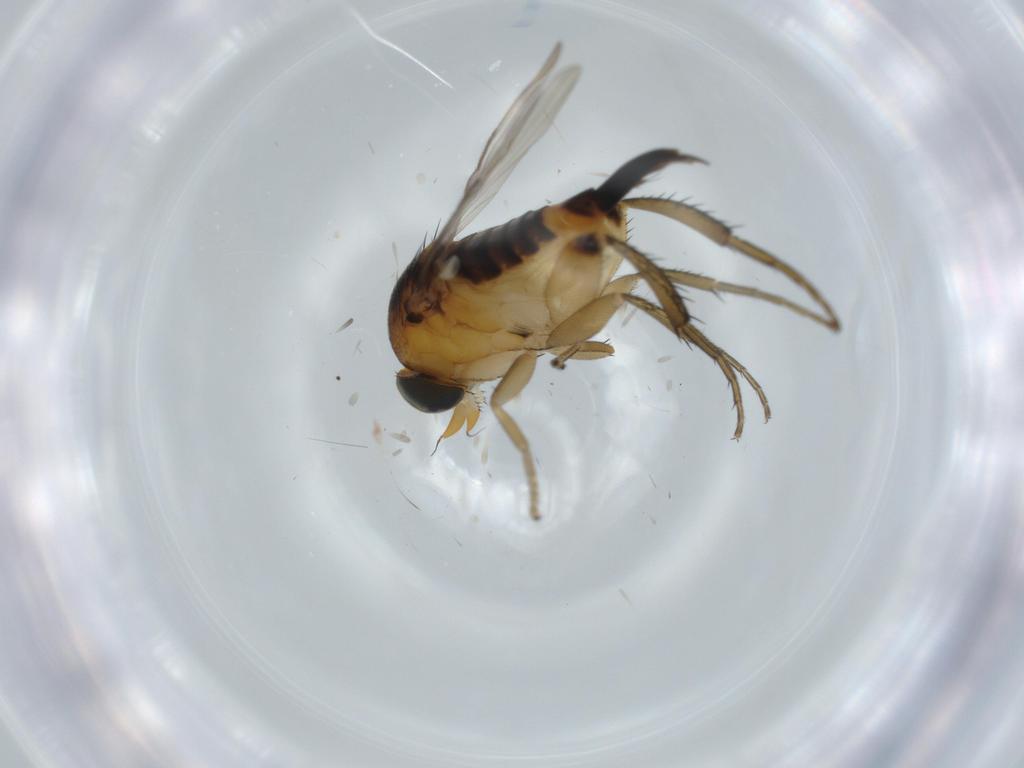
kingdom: Animalia
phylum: Arthropoda
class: Insecta
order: Diptera
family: Phoridae
